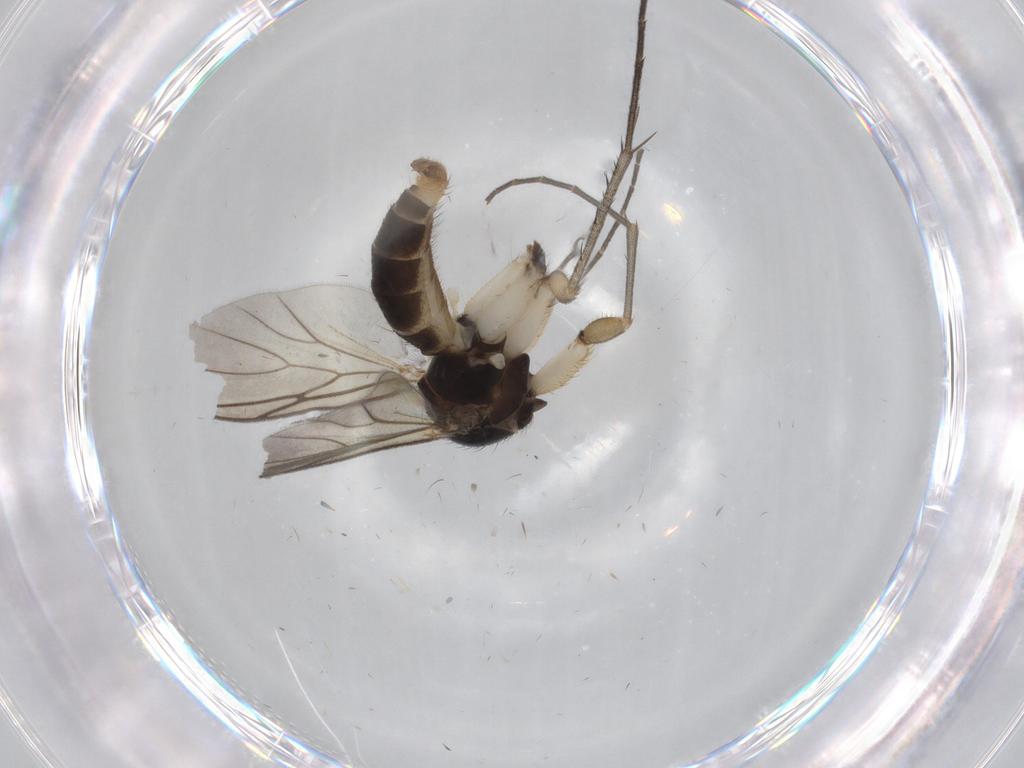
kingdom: Animalia
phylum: Arthropoda
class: Insecta
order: Diptera
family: Mycetophilidae
